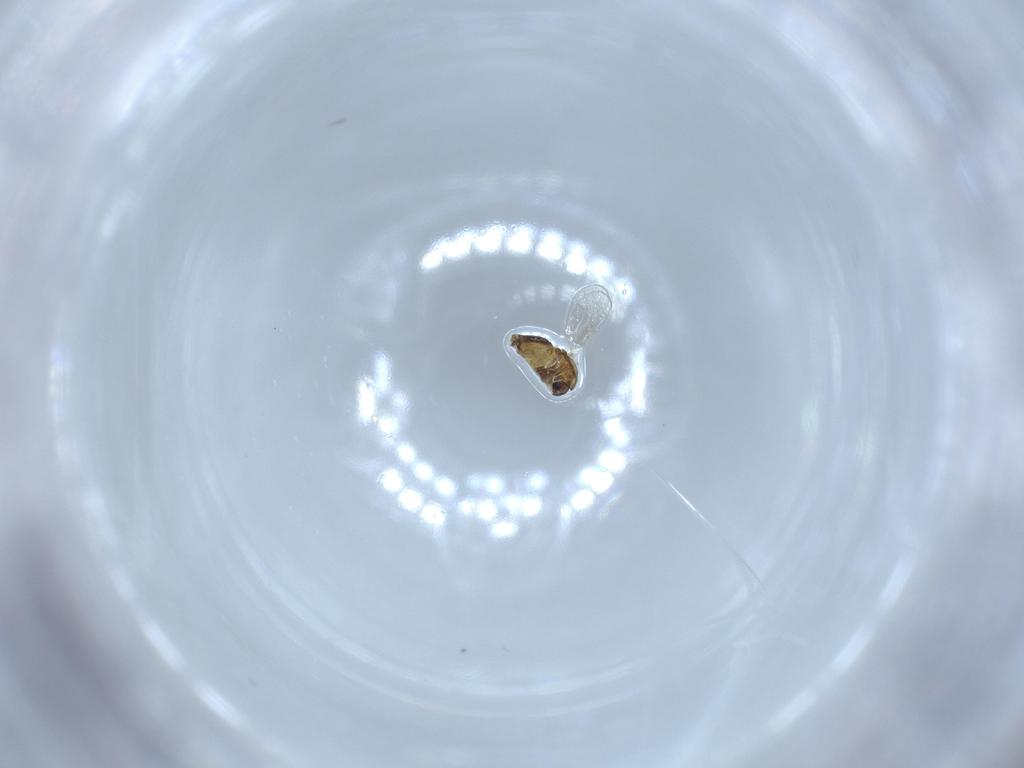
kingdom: Animalia
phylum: Arthropoda
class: Insecta
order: Diptera
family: Chironomidae
